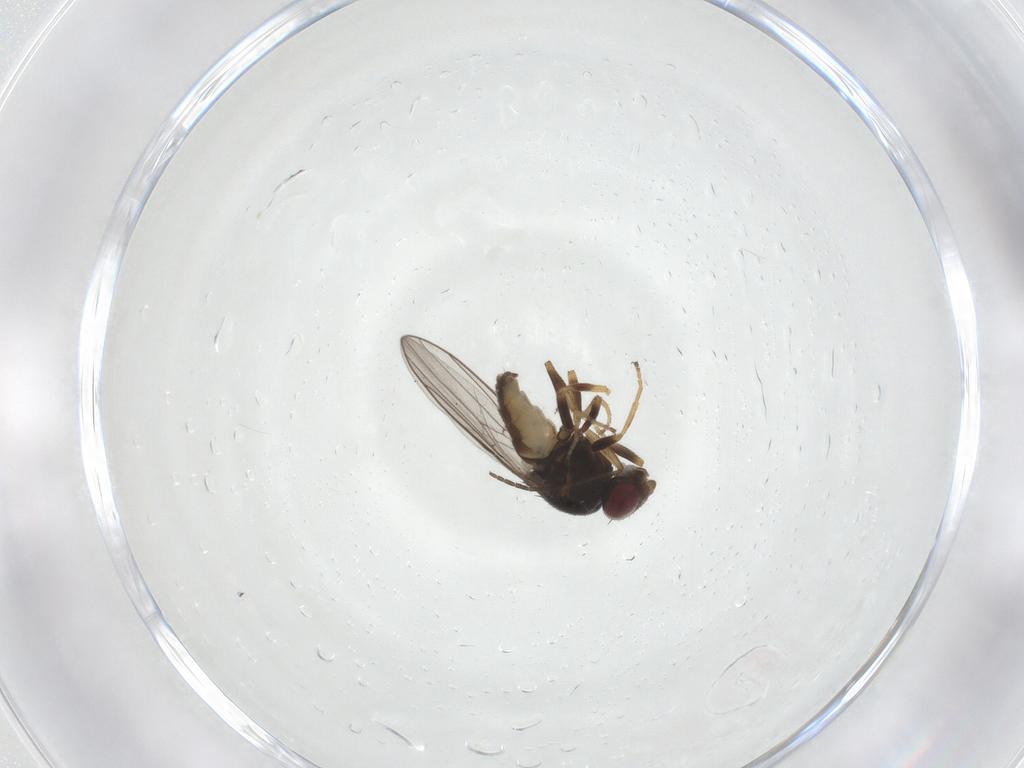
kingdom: Animalia
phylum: Arthropoda
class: Insecta
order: Diptera
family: Chloropidae
